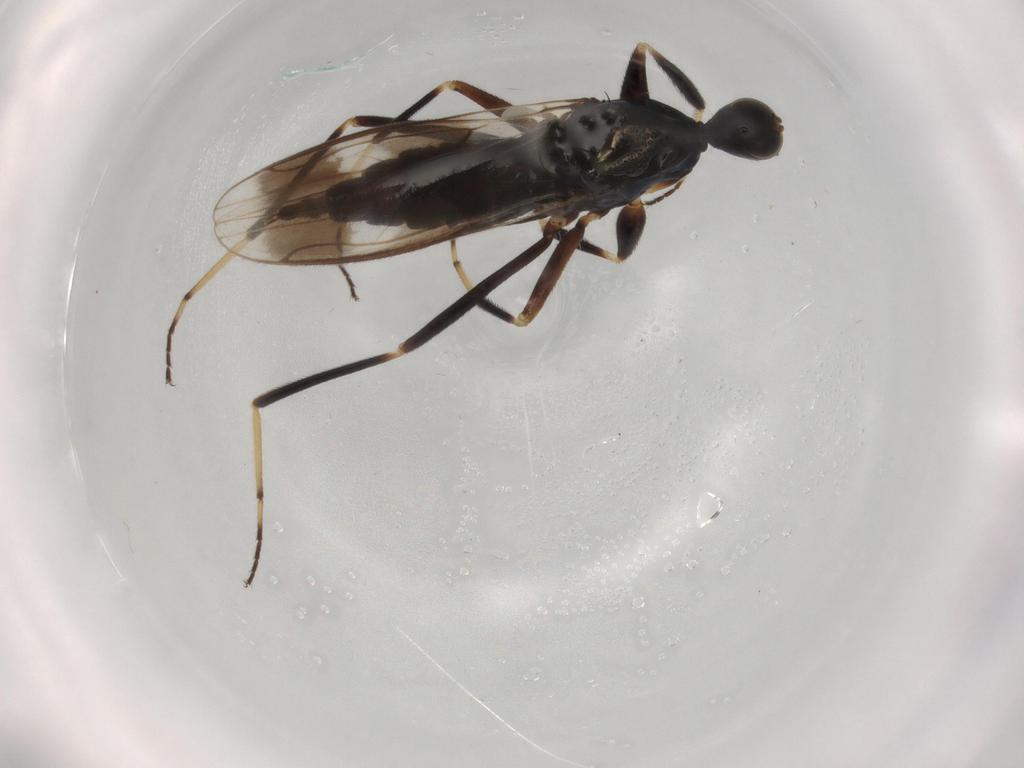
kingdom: Animalia
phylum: Arthropoda
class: Insecta
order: Diptera
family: Hybotidae
